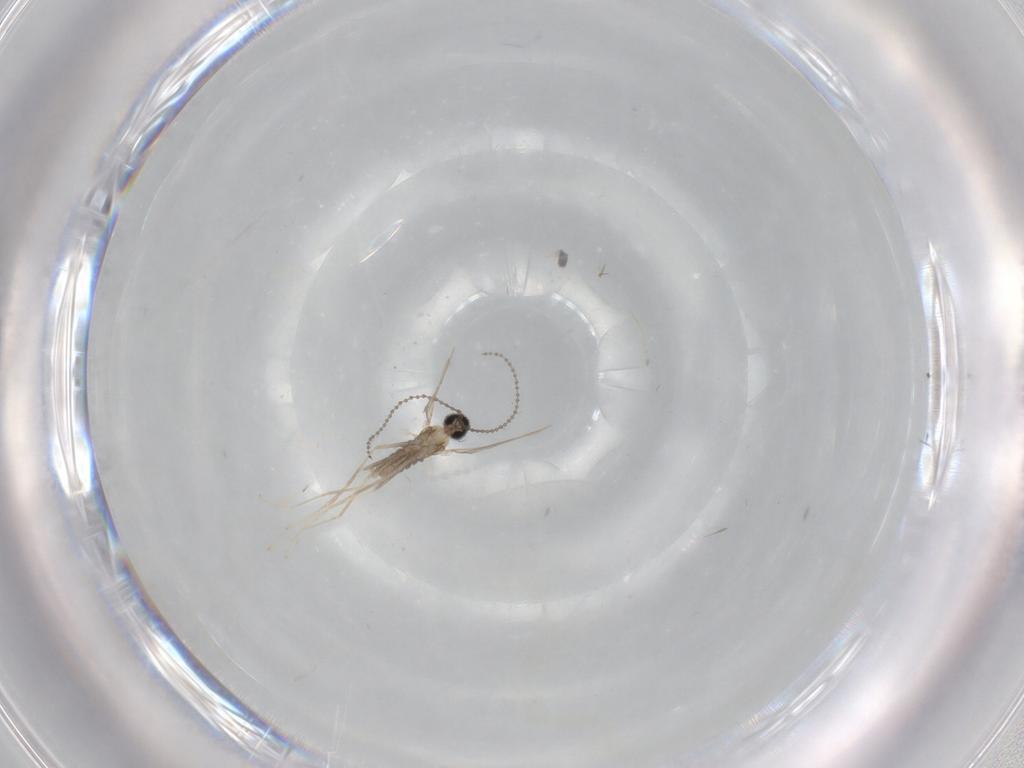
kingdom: Animalia
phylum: Arthropoda
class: Insecta
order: Diptera
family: Cecidomyiidae
